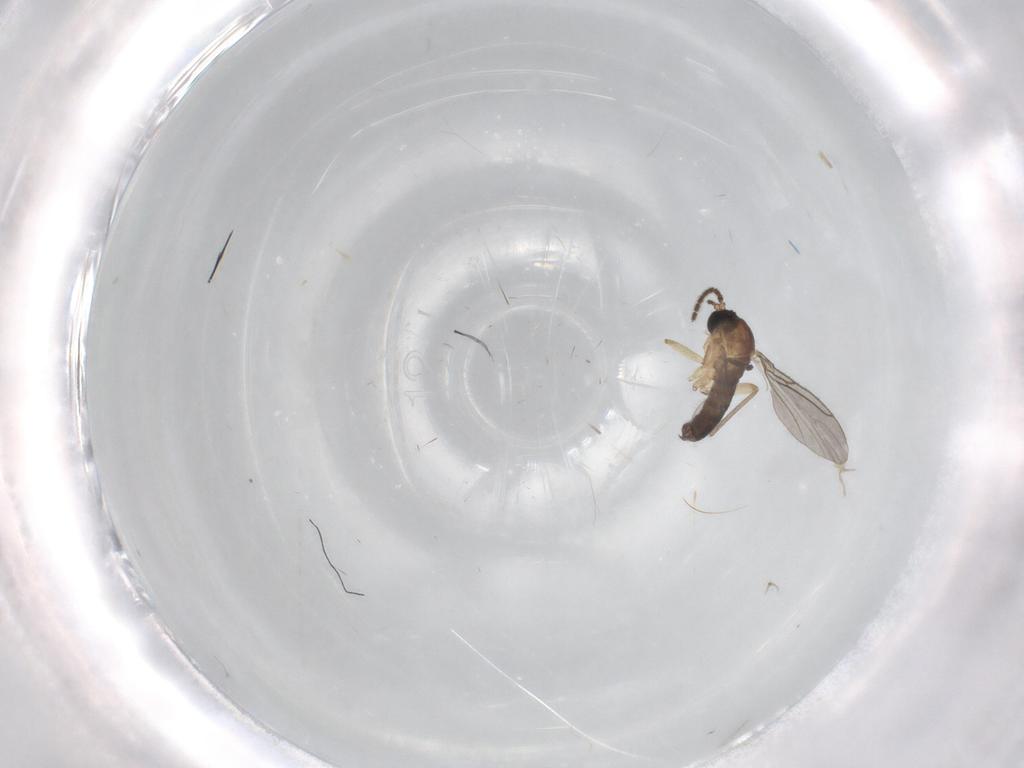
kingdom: Animalia
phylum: Arthropoda
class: Insecta
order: Diptera
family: Sciaridae
